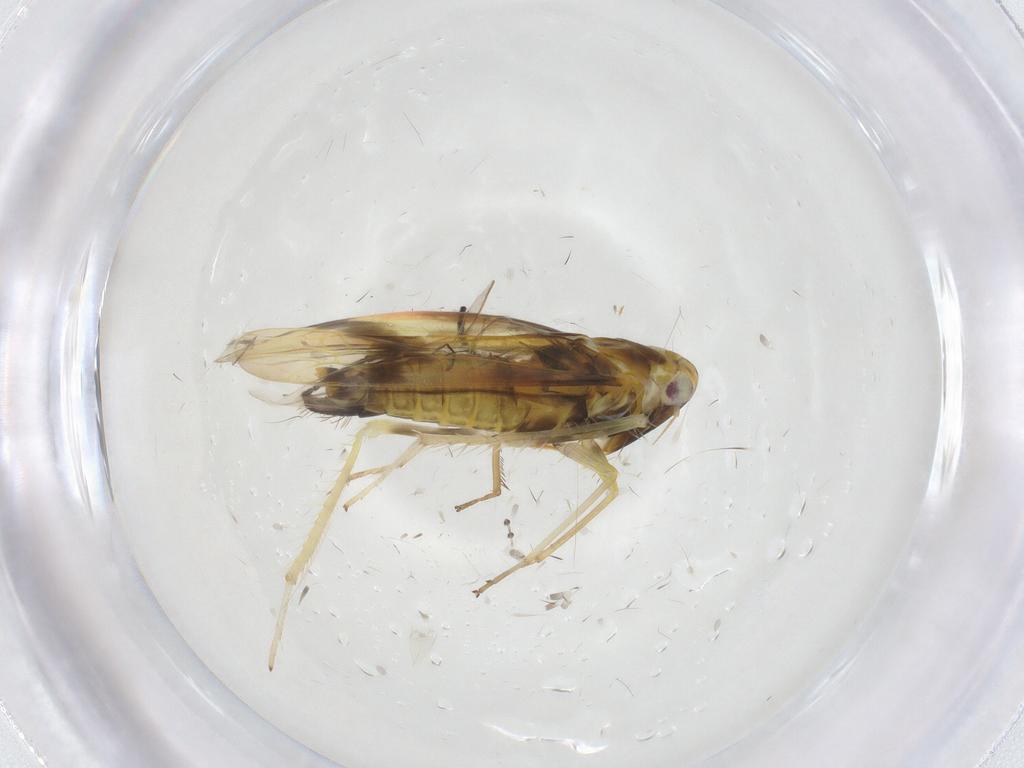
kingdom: Animalia
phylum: Arthropoda
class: Insecta
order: Hemiptera
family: Cicadellidae
